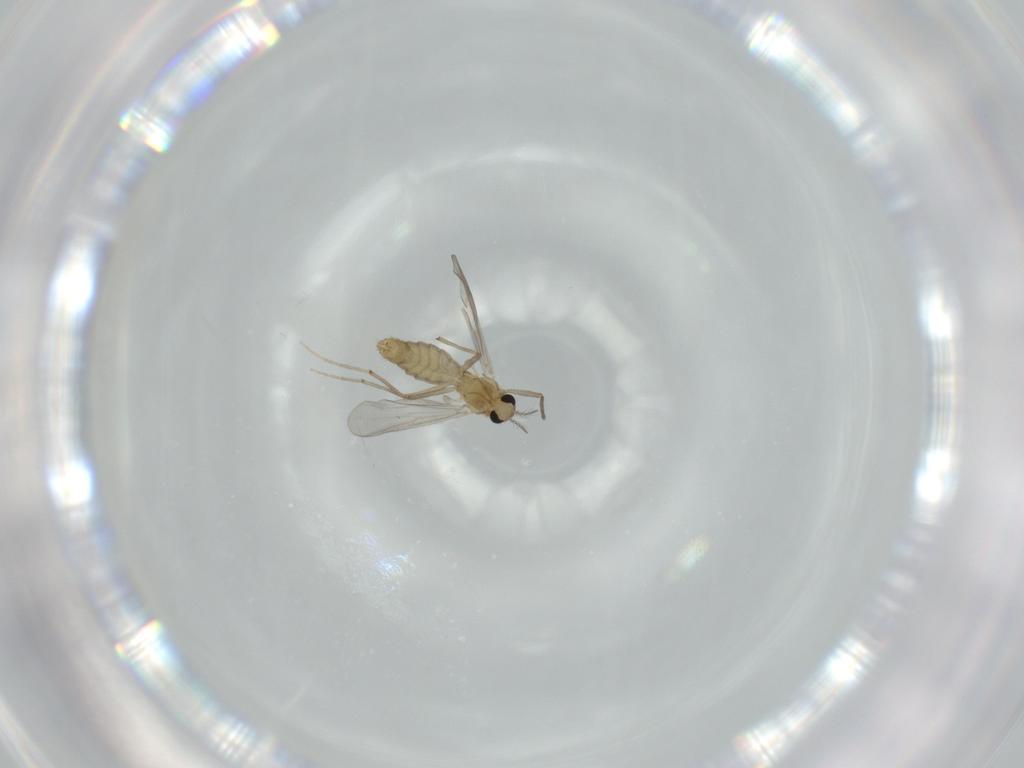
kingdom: Animalia
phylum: Arthropoda
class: Insecta
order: Diptera
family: Chironomidae
